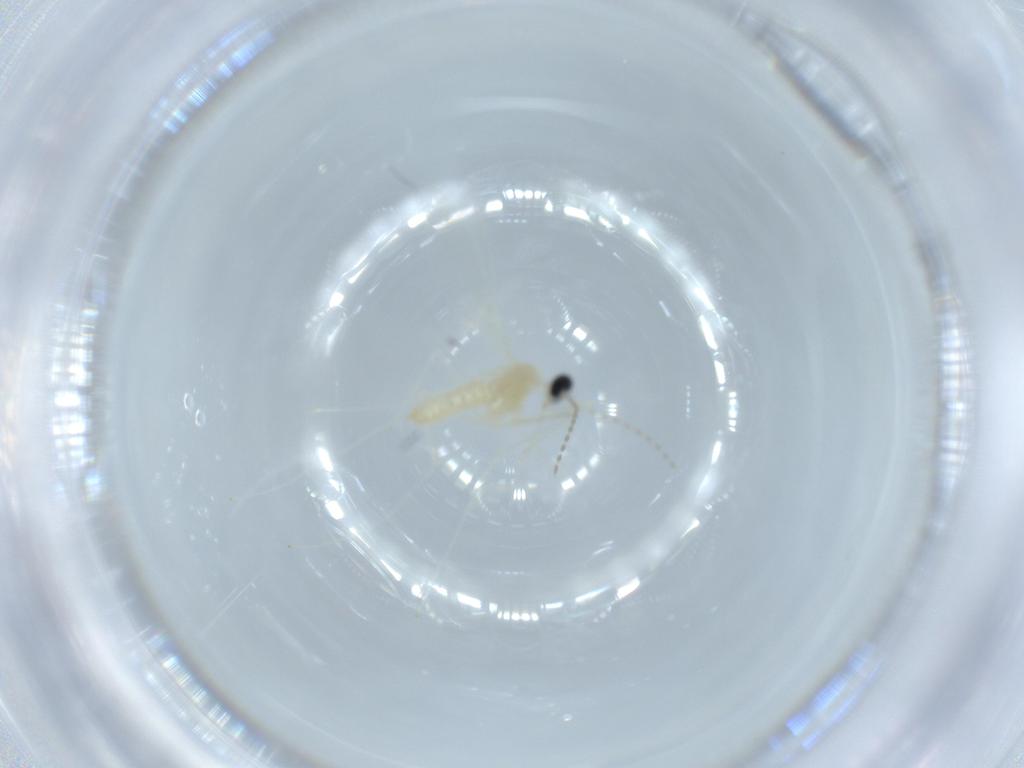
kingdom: Animalia
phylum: Arthropoda
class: Insecta
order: Diptera
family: Cecidomyiidae
